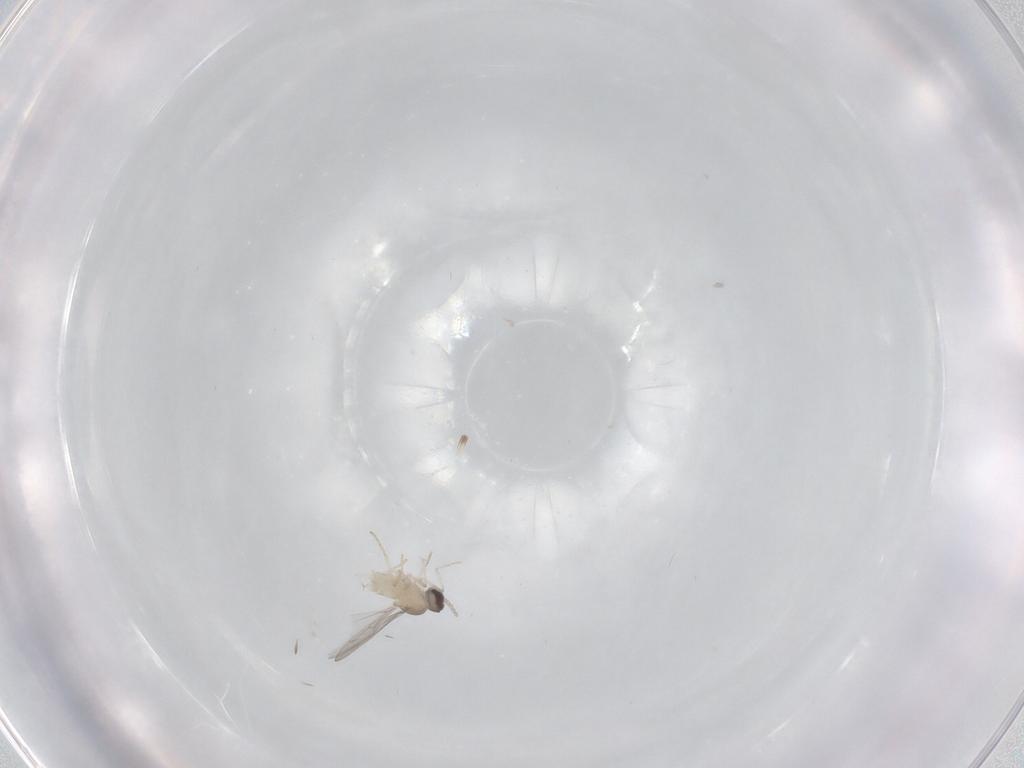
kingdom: Animalia
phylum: Arthropoda
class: Insecta
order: Diptera
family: Cecidomyiidae
